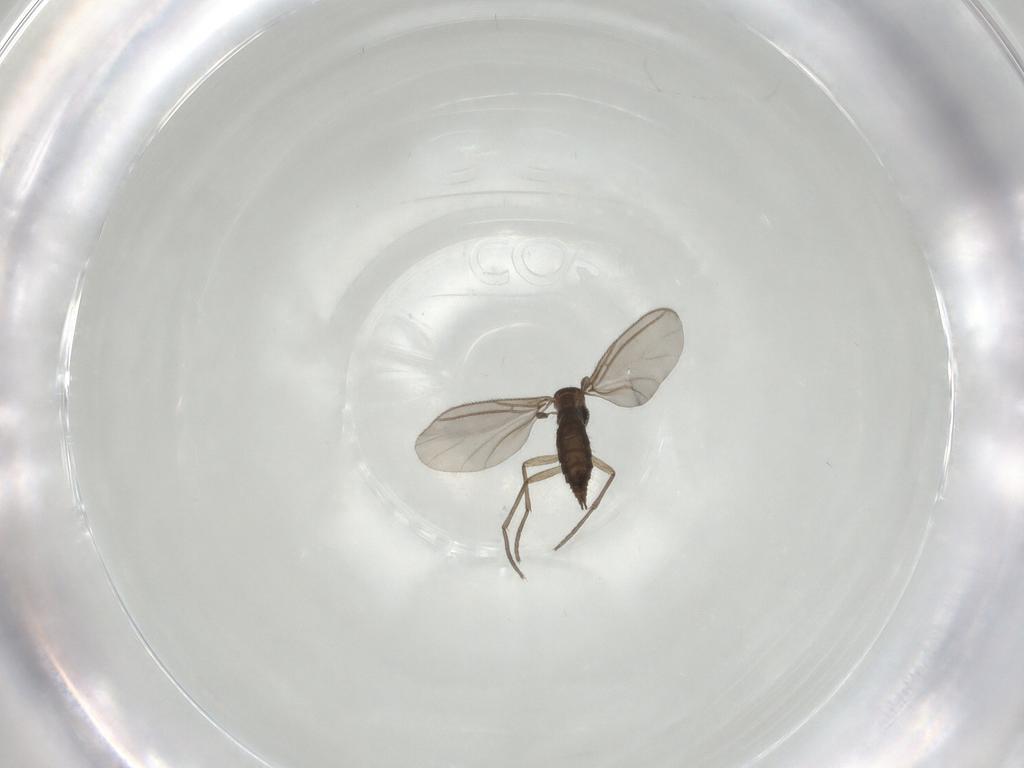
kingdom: Animalia
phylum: Arthropoda
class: Insecta
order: Diptera
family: Sciaridae
